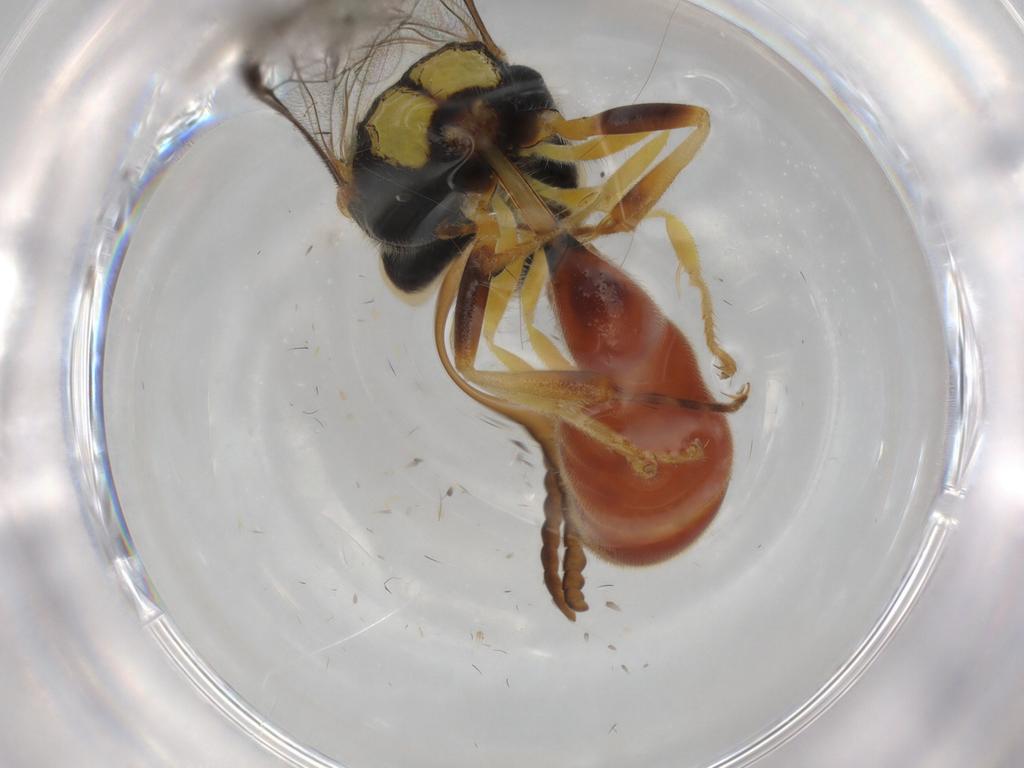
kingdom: Animalia
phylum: Arthropoda
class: Insecta
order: Hymenoptera
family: Crabronidae
